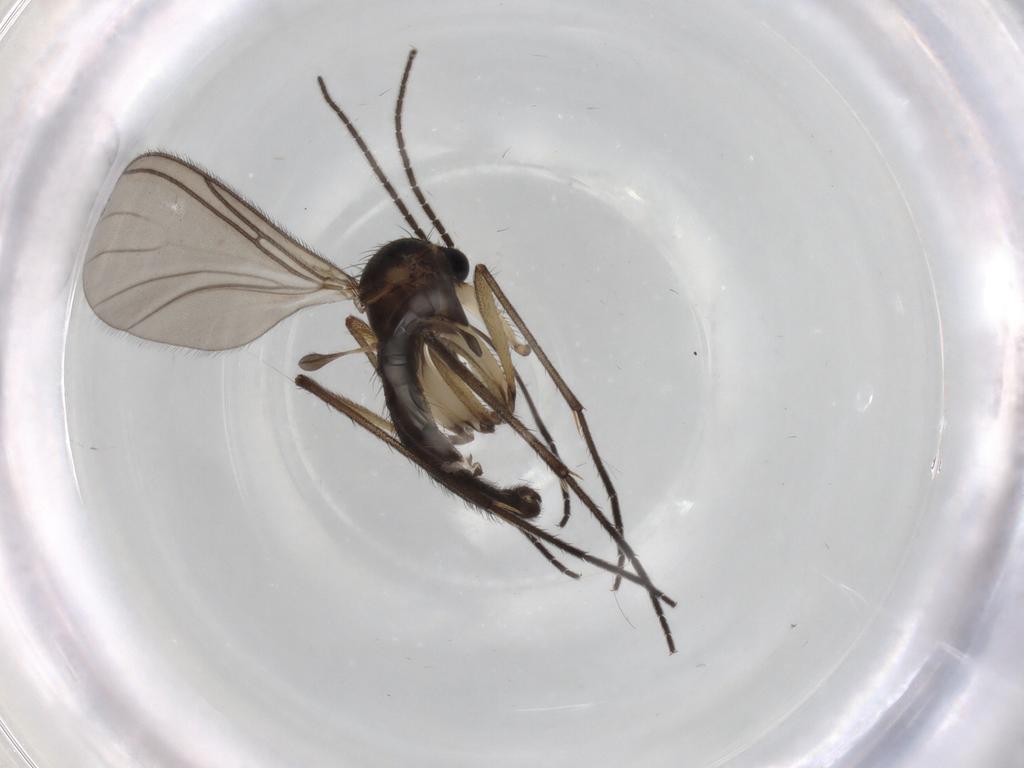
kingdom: Animalia
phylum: Arthropoda
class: Insecta
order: Diptera
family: Sciaridae
